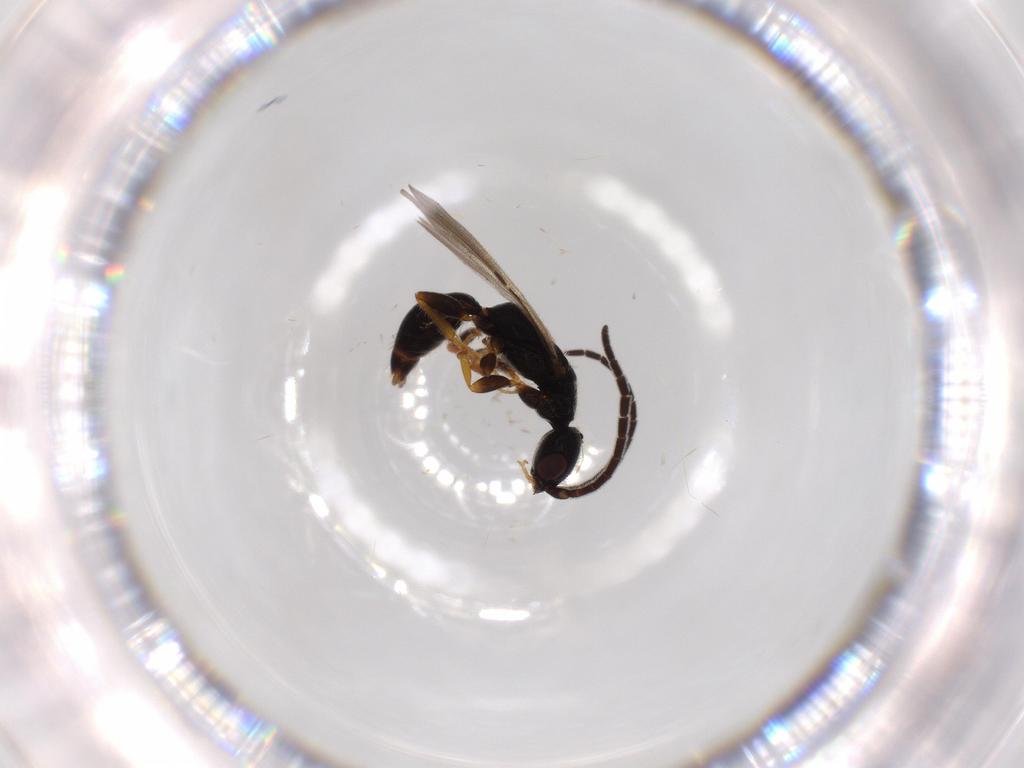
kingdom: Animalia
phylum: Arthropoda
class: Insecta
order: Hymenoptera
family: Bethylidae
